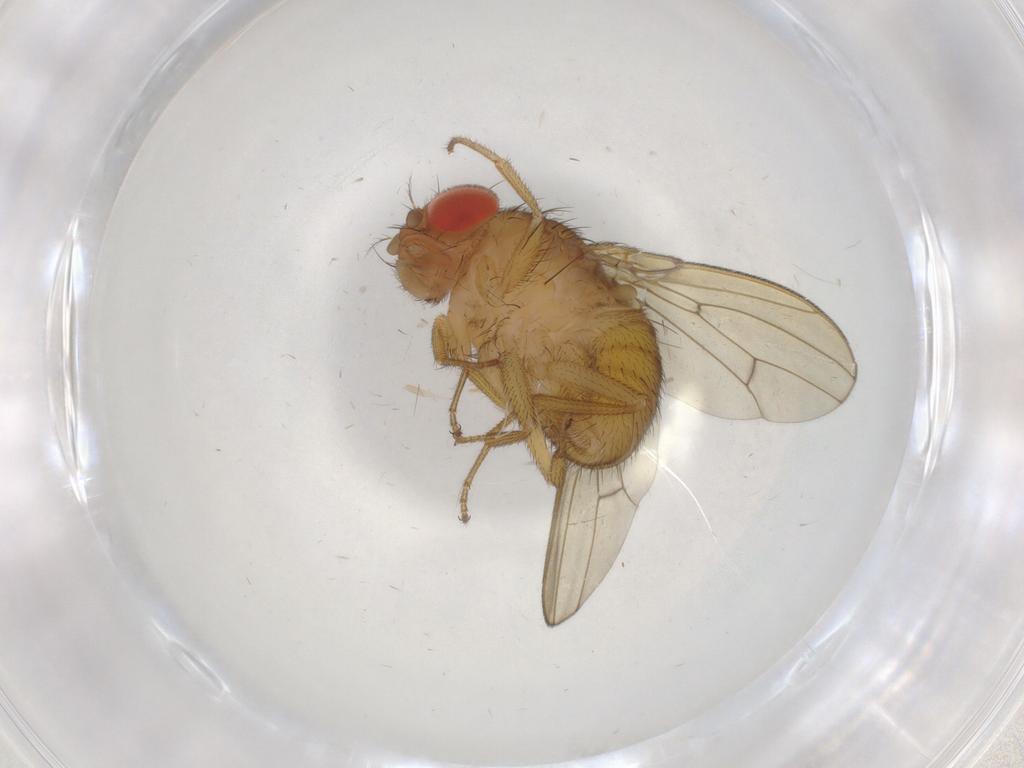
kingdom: Animalia
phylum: Arthropoda
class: Insecta
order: Diptera
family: Drosophilidae
